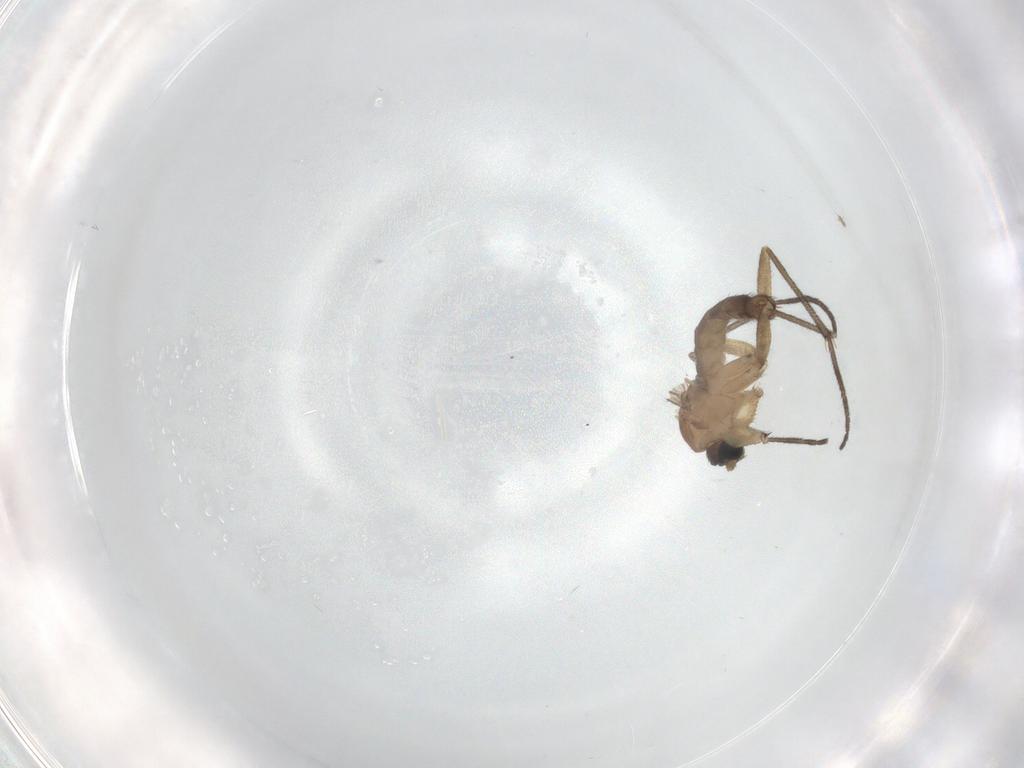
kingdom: Animalia
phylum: Arthropoda
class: Insecta
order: Diptera
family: Sciaridae
